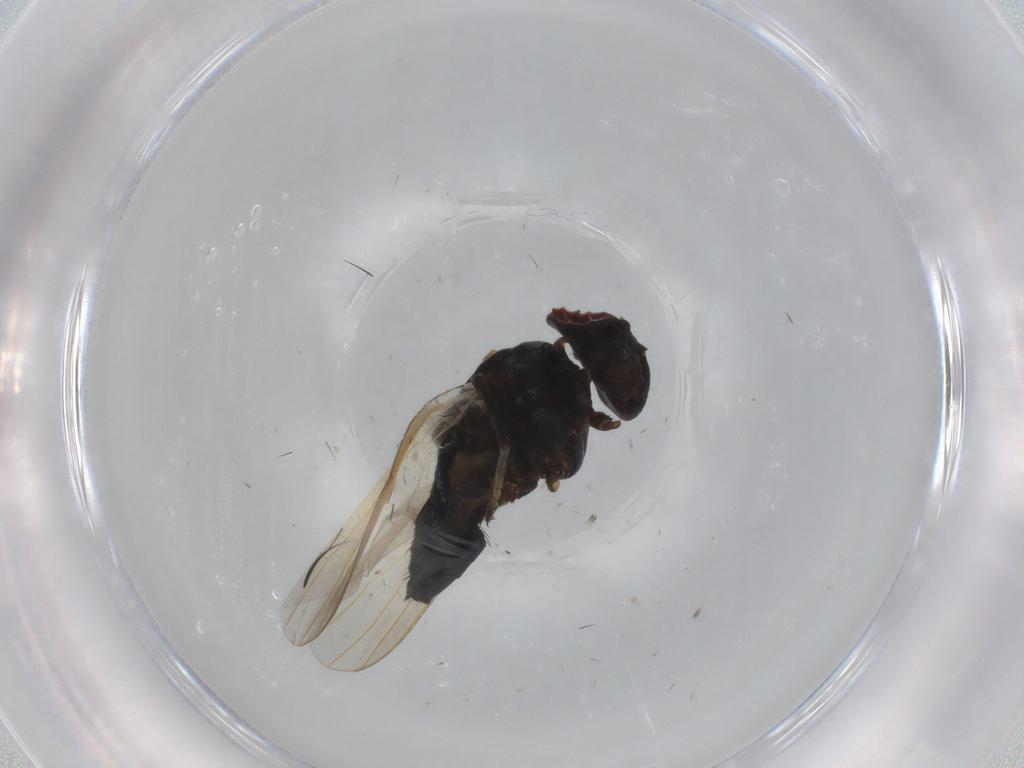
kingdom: Animalia
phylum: Arthropoda
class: Insecta
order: Diptera
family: Lonchaeidae
